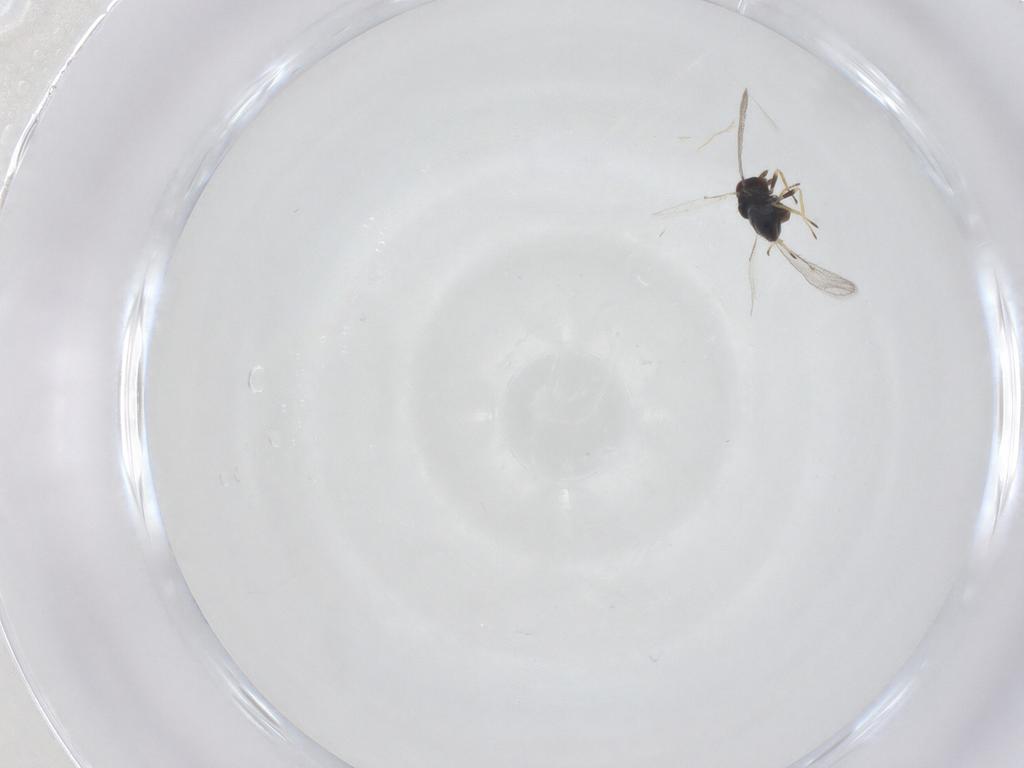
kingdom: Animalia
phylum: Arthropoda
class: Insecta
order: Hymenoptera
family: Eulophidae
